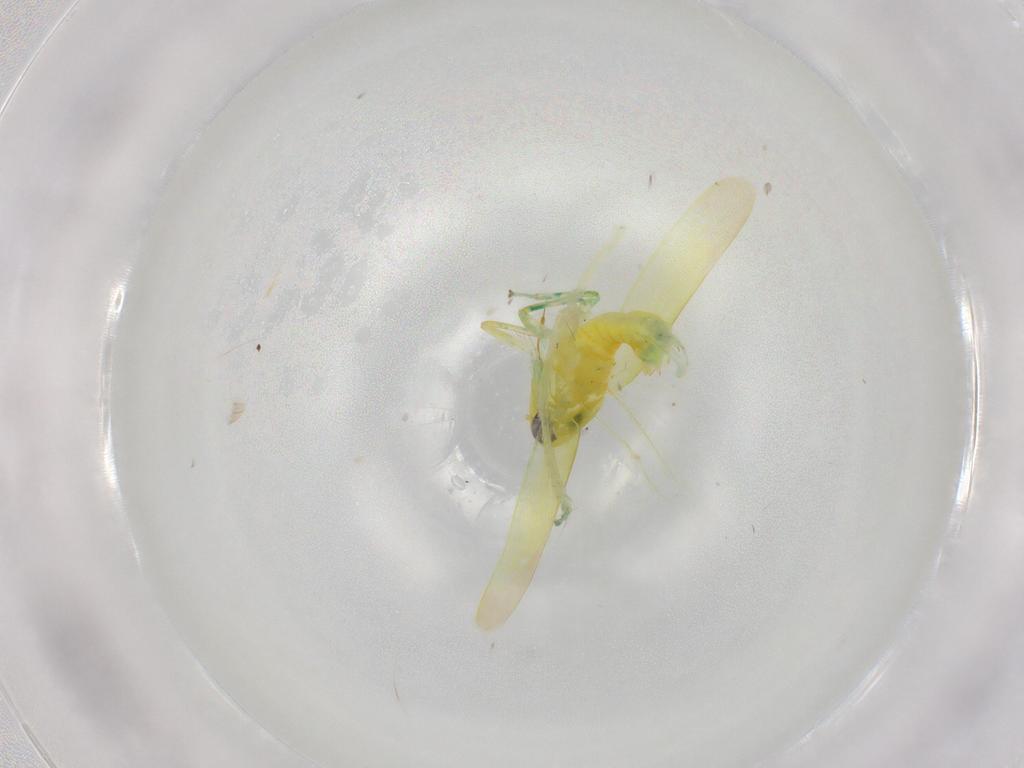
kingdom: Animalia
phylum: Arthropoda
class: Insecta
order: Hemiptera
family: Cicadellidae
